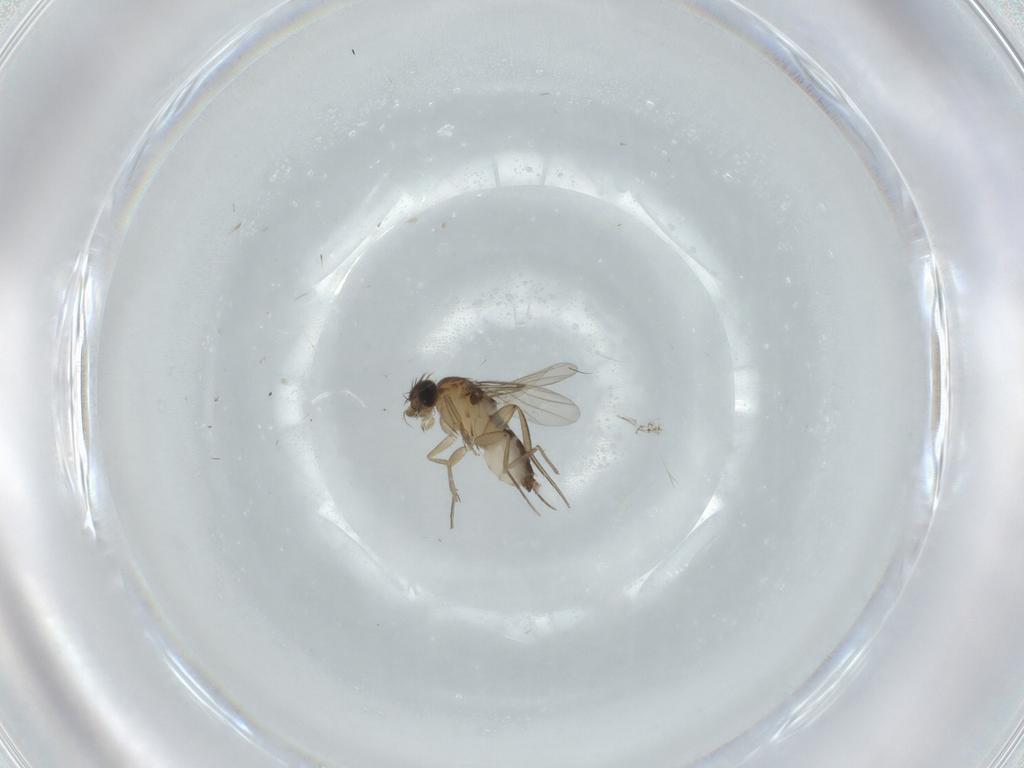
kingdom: Animalia
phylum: Arthropoda
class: Insecta
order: Diptera
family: Phoridae
